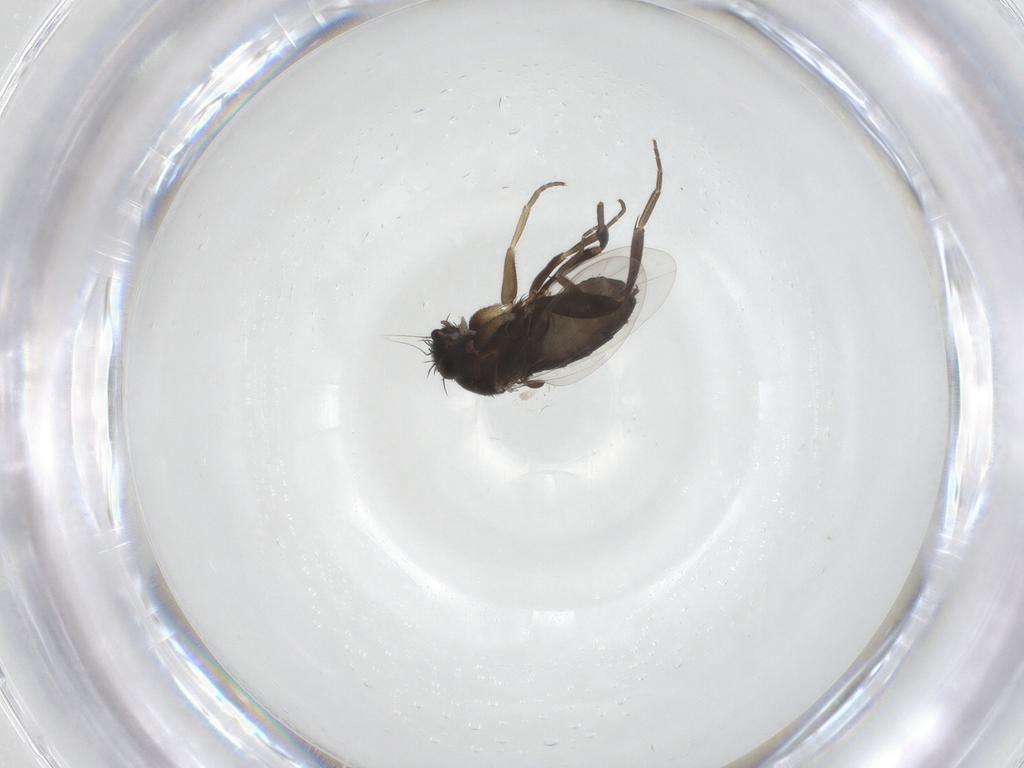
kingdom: Animalia
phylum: Arthropoda
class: Insecta
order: Diptera
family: Phoridae
